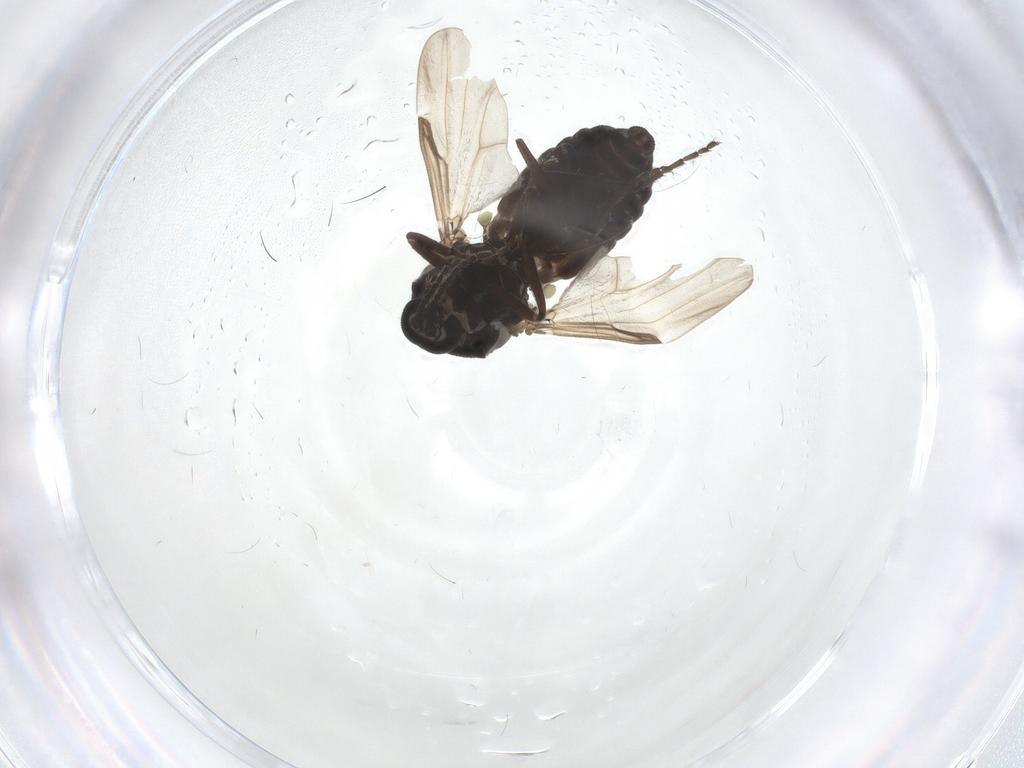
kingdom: Animalia
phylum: Arthropoda
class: Insecta
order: Diptera
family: Ceratopogonidae
